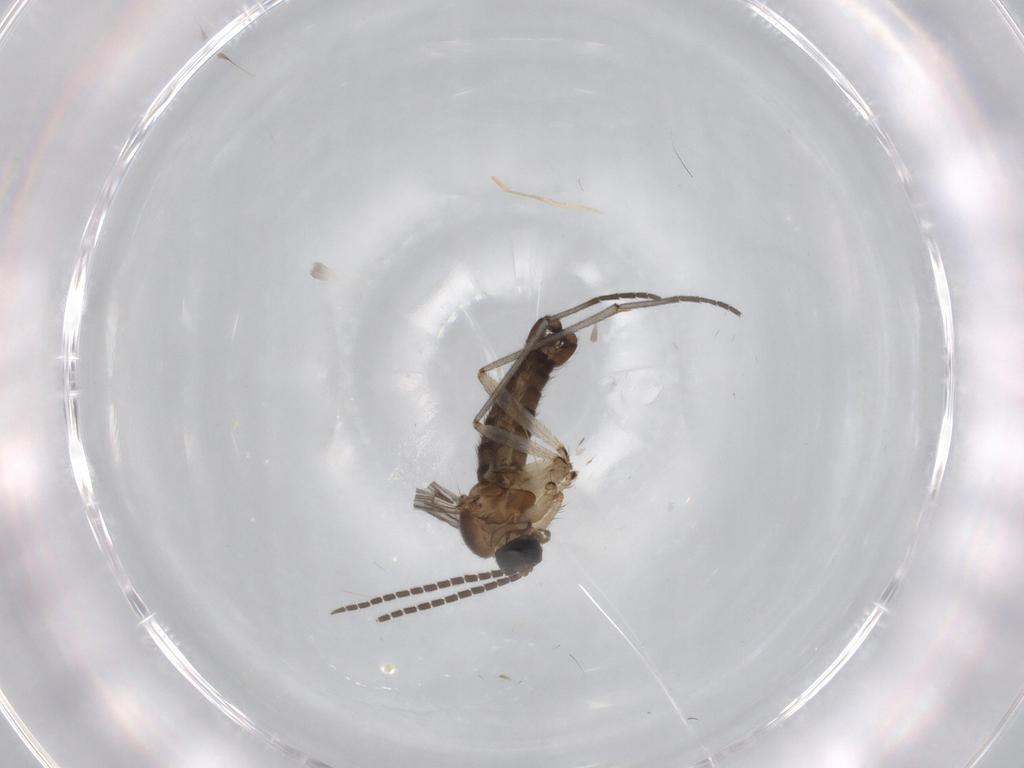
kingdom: Animalia
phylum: Arthropoda
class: Insecta
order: Diptera
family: Sciaridae
